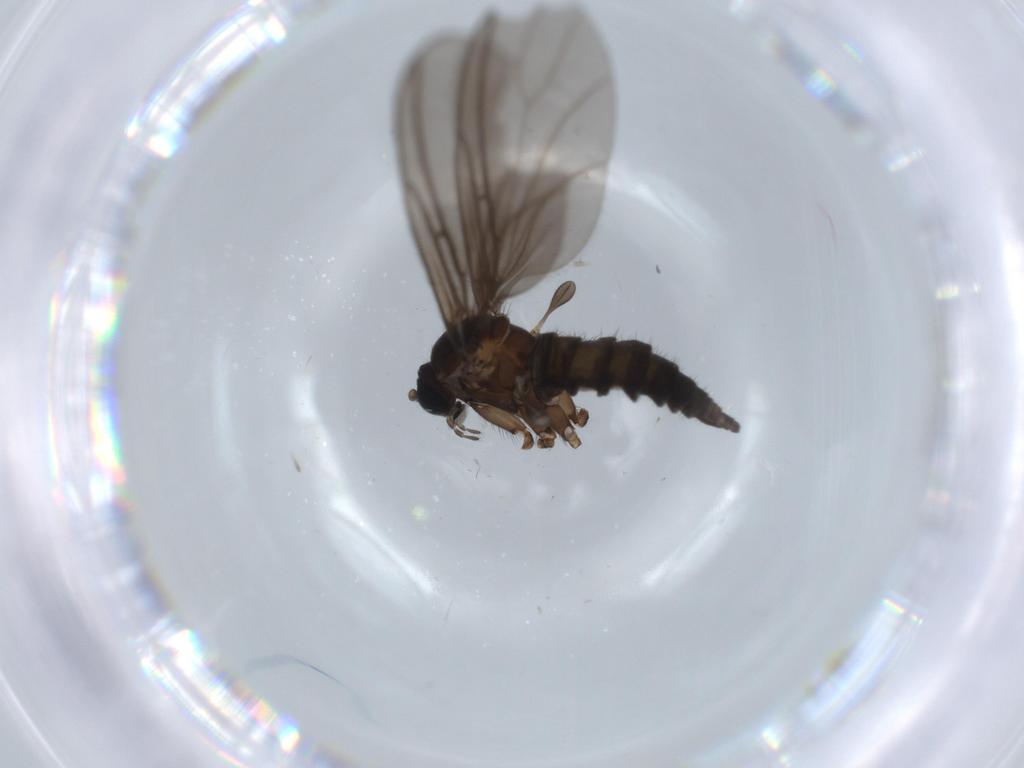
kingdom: Animalia
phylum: Arthropoda
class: Insecta
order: Diptera
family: Sciaridae
